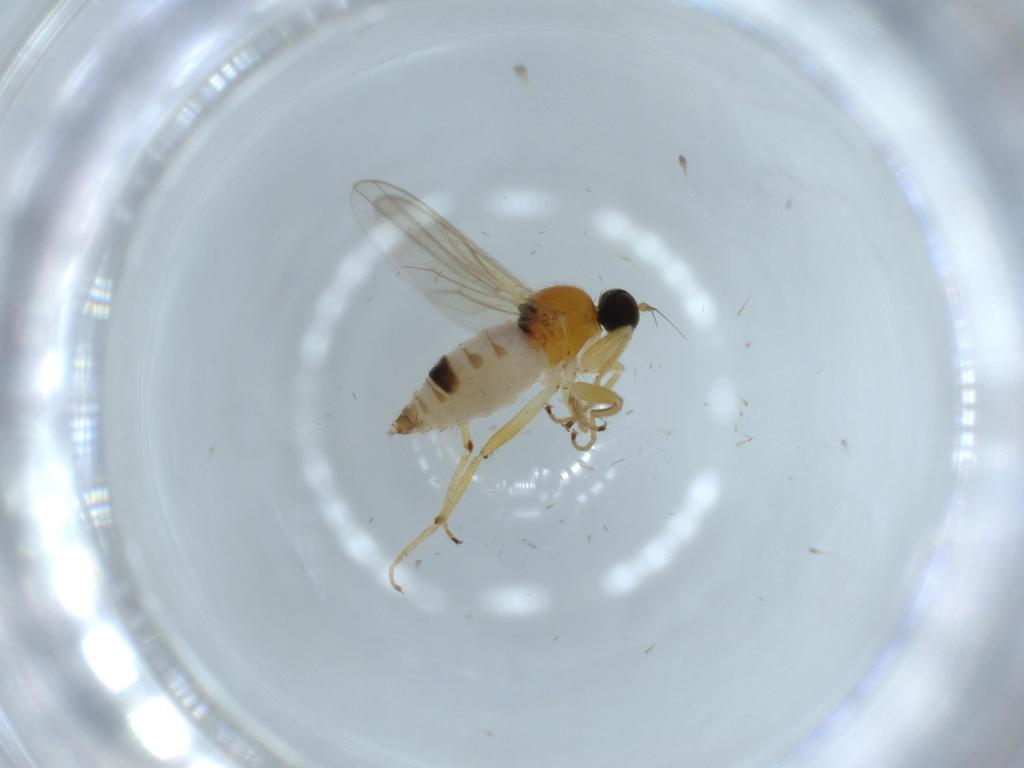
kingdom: Animalia
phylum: Arthropoda
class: Insecta
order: Diptera
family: Hybotidae
